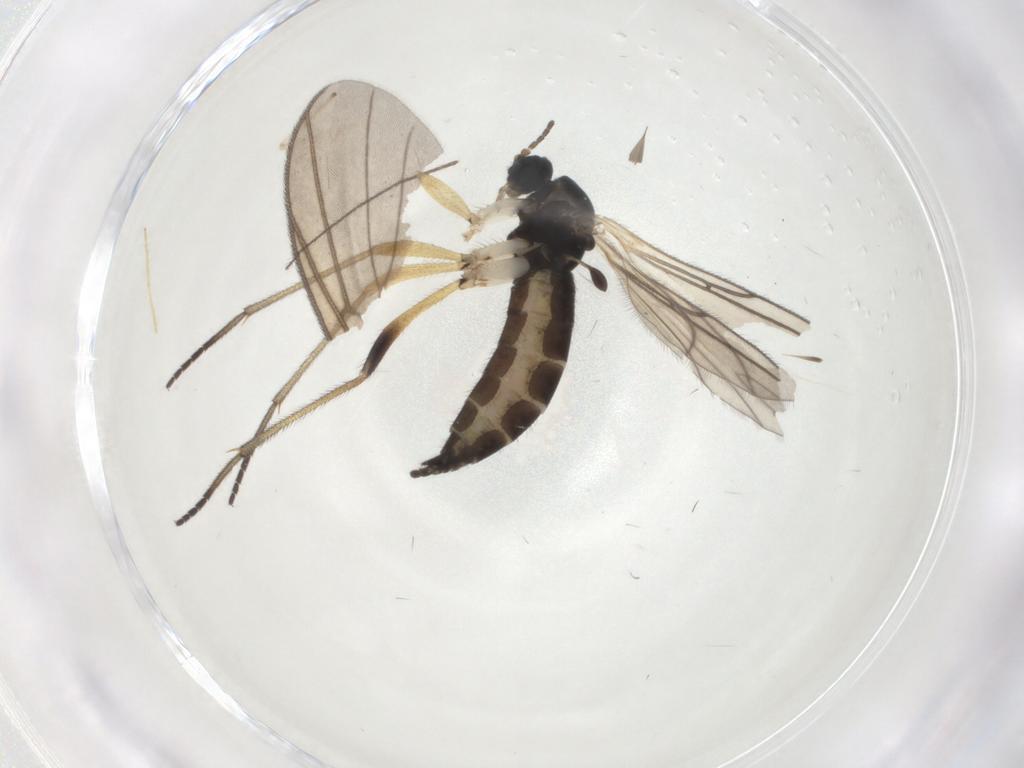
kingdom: Animalia
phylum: Arthropoda
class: Insecta
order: Diptera
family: Sciaridae
